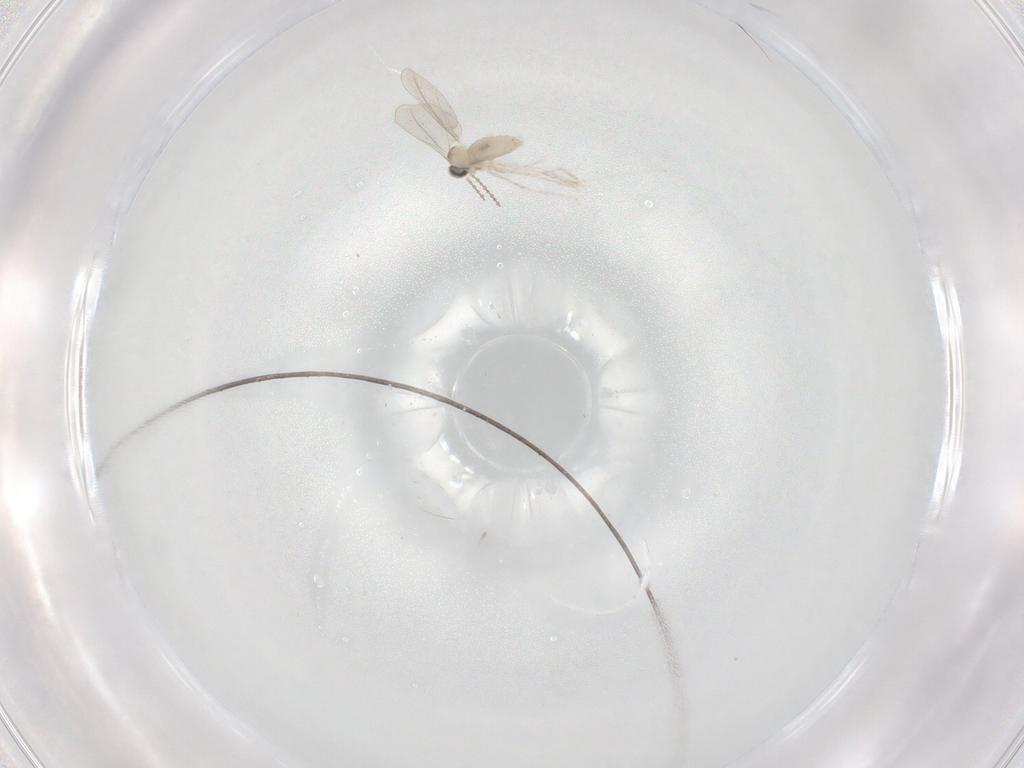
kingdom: Animalia
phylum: Arthropoda
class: Insecta
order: Diptera
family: Cecidomyiidae
